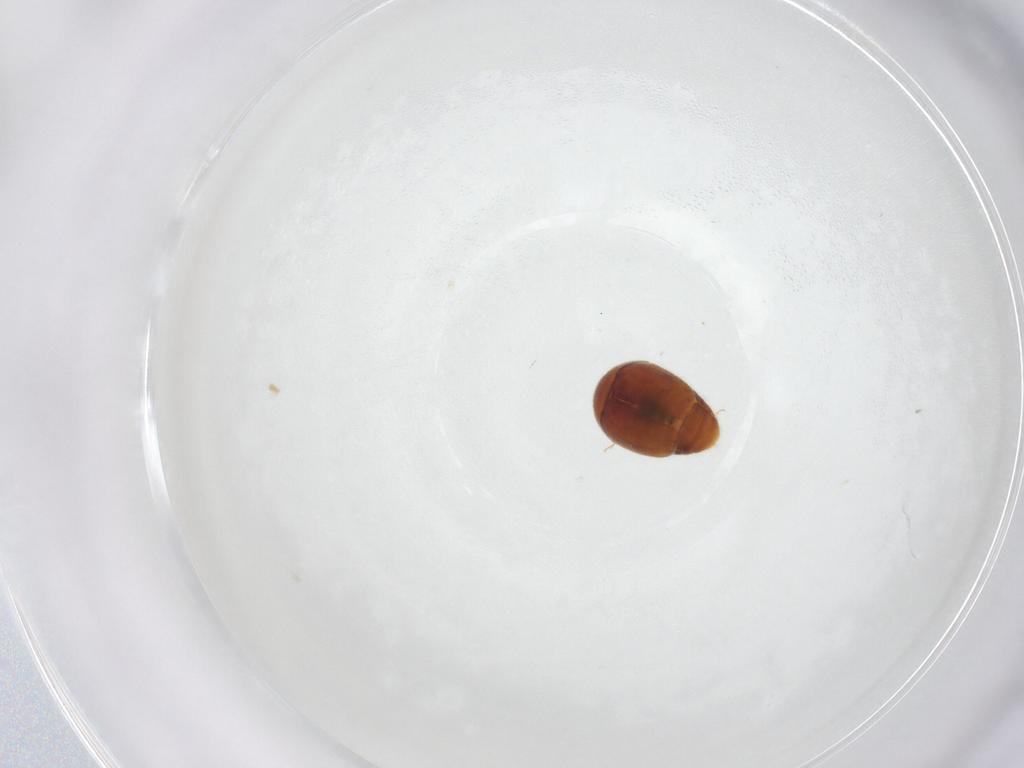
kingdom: Animalia
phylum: Arthropoda
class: Insecta
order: Coleoptera
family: Corylophidae
